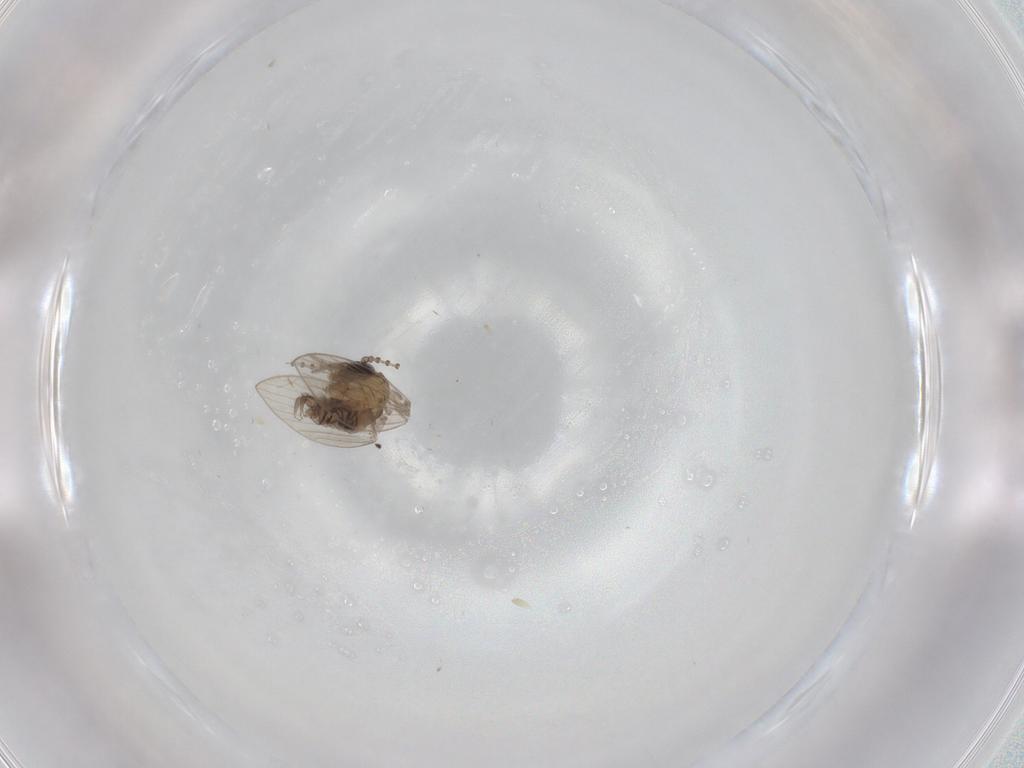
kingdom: Animalia
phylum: Arthropoda
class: Insecta
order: Diptera
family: Psychodidae
